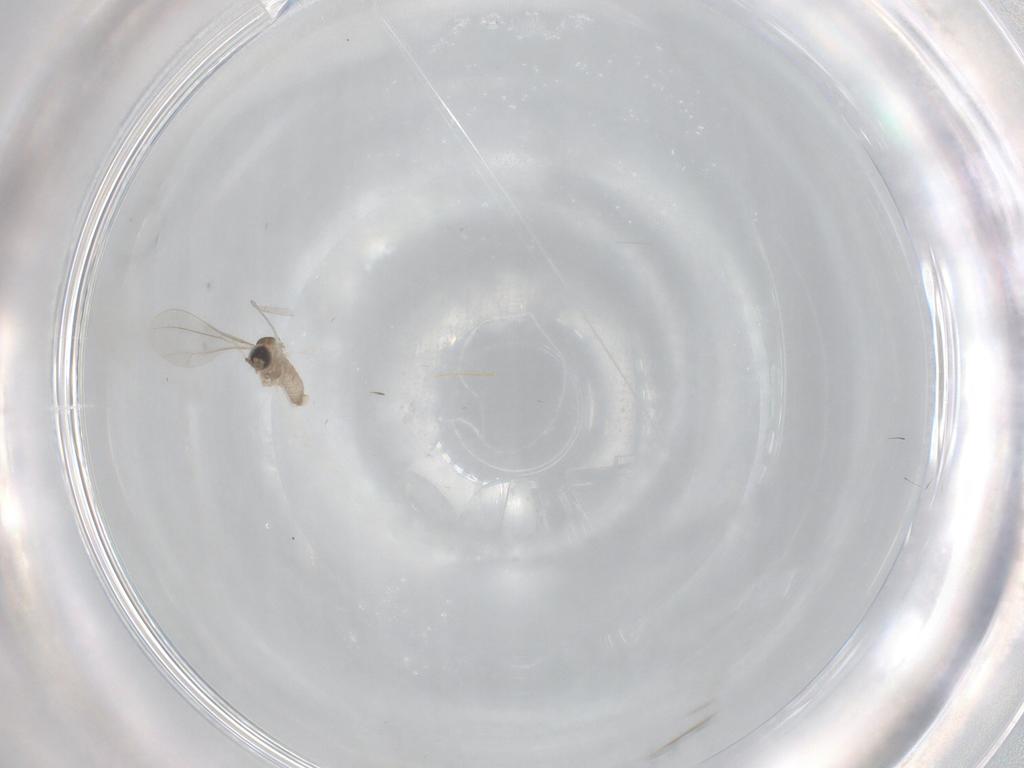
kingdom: Animalia
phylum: Arthropoda
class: Insecta
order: Diptera
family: Cecidomyiidae
